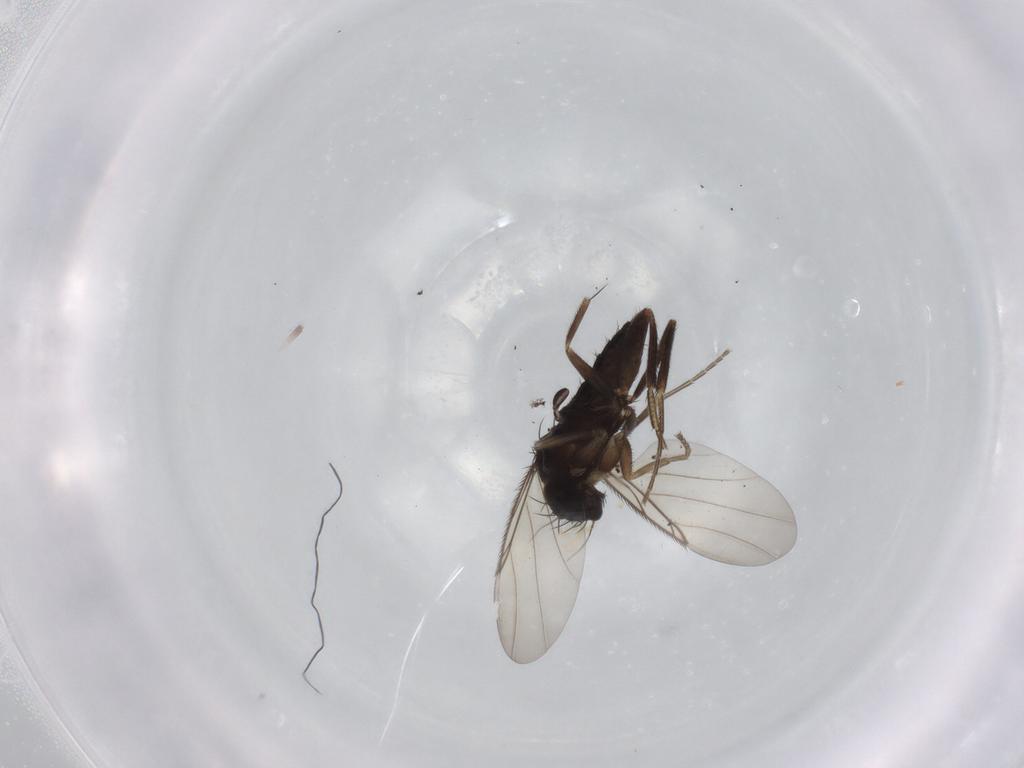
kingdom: Animalia
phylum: Arthropoda
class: Insecta
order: Diptera
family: Phoridae
